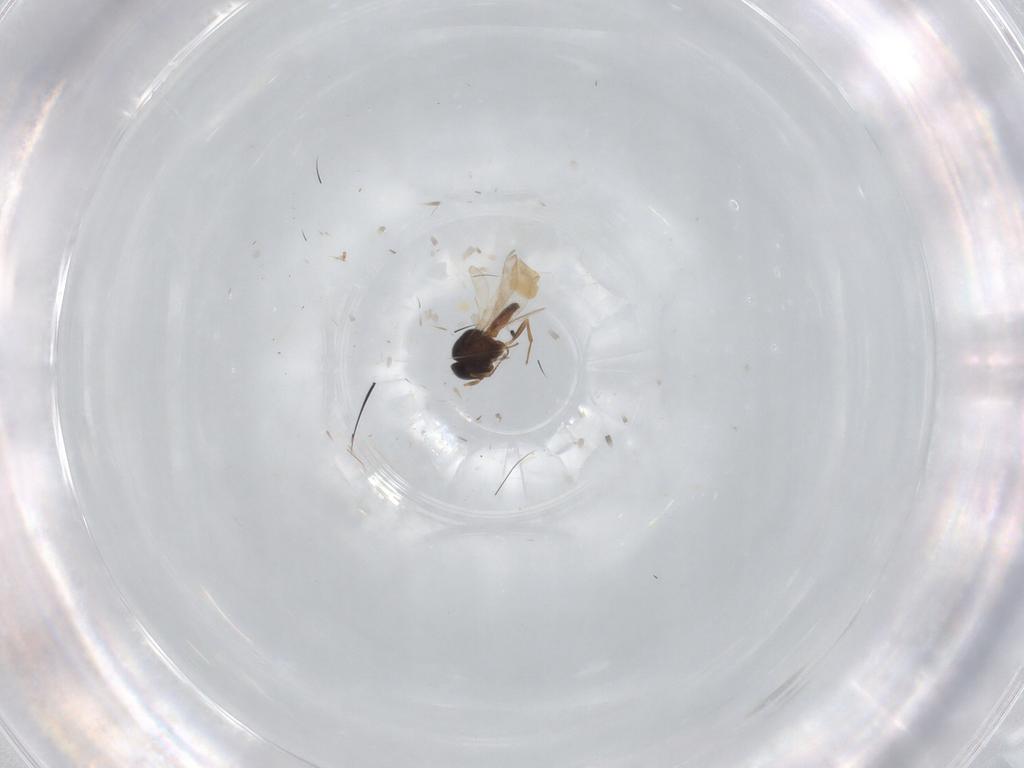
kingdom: Animalia
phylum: Arthropoda
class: Insecta
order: Hymenoptera
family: Scelionidae
